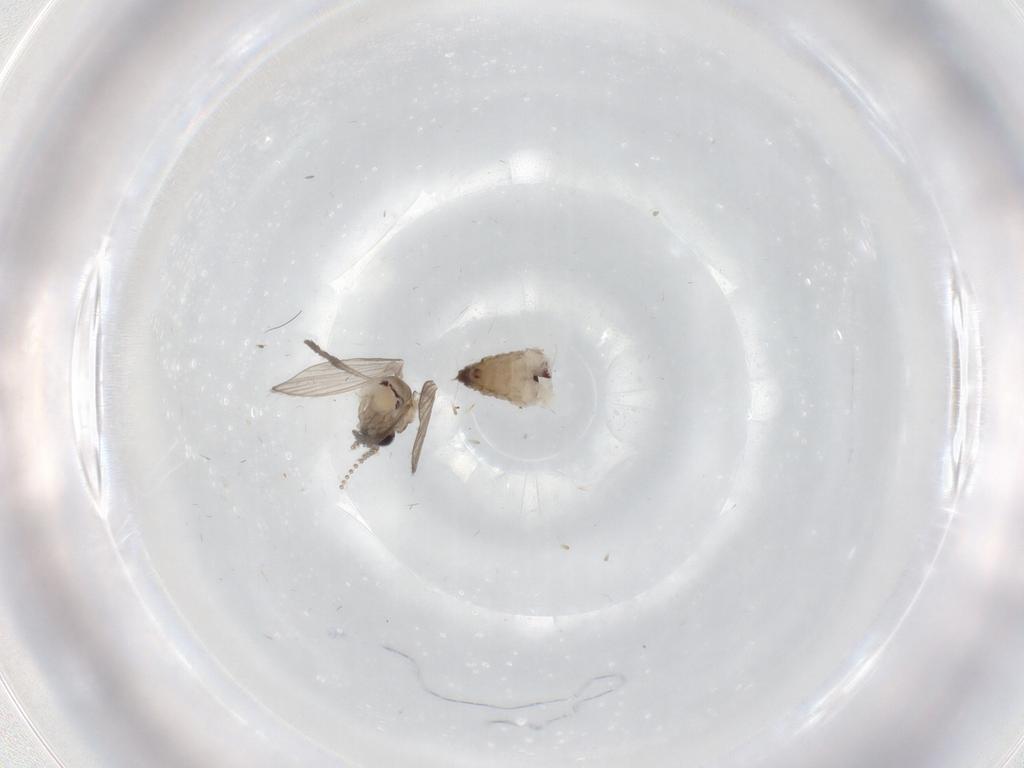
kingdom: Animalia
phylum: Arthropoda
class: Insecta
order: Diptera
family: Psychodidae
